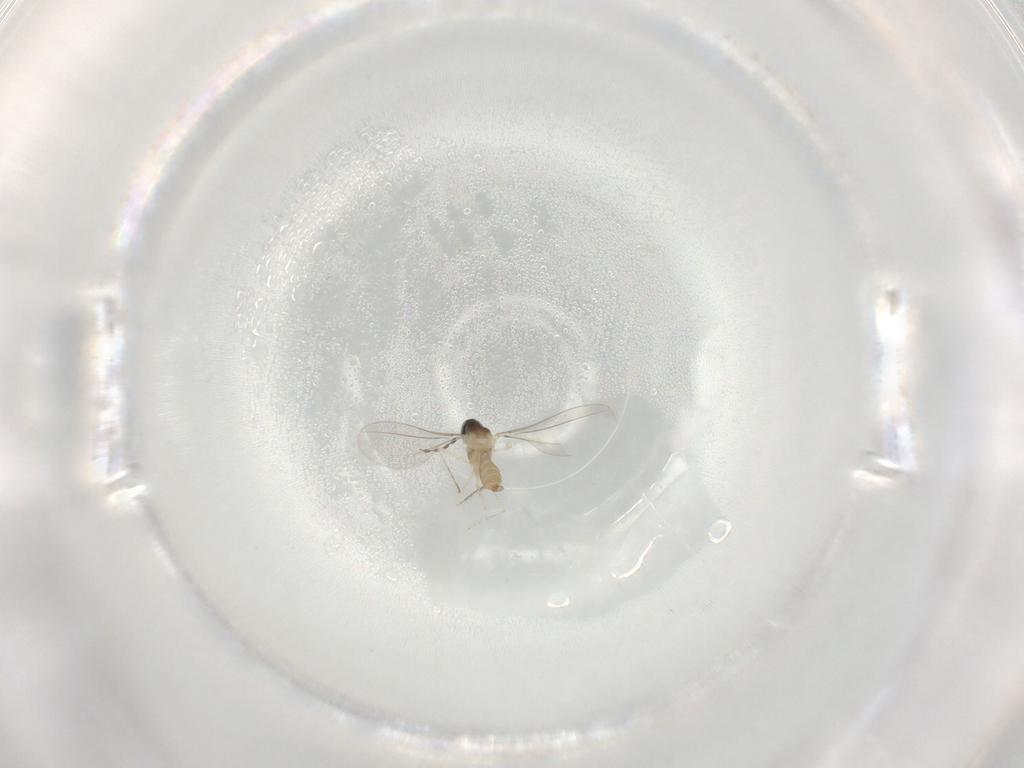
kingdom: Animalia
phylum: Arthropoda
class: Insecta
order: Diptera
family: Cecidomyiidae
